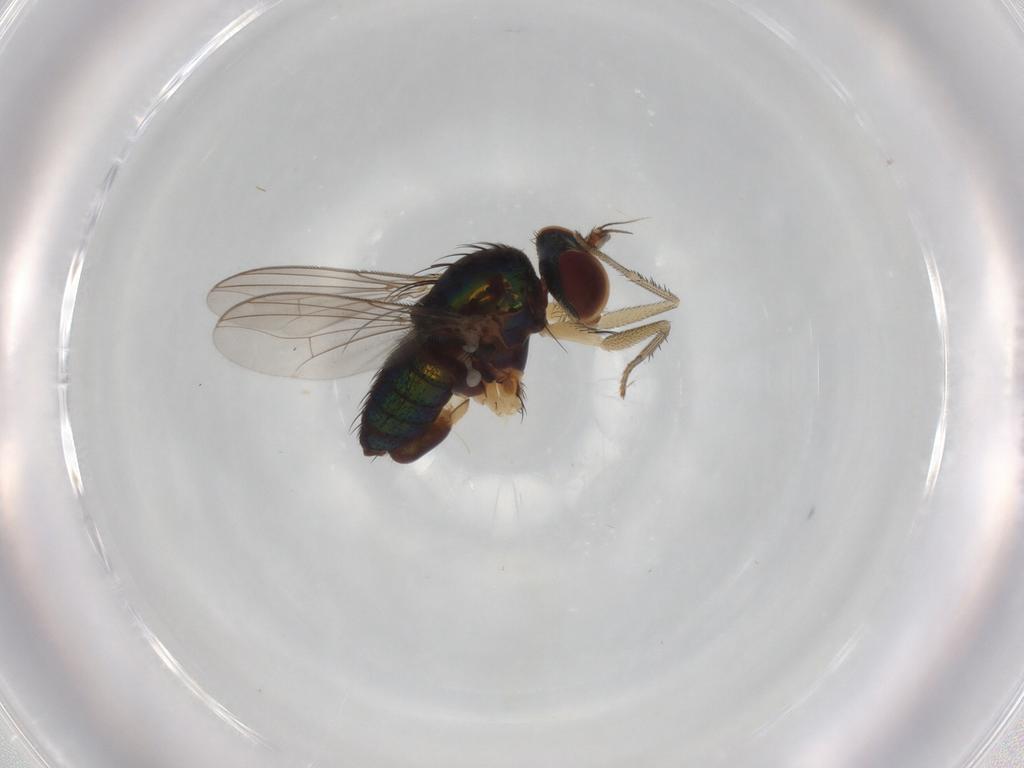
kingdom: Animalia
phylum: Arthropoda
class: Insecta
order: Diptera
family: Dolichopodidae
